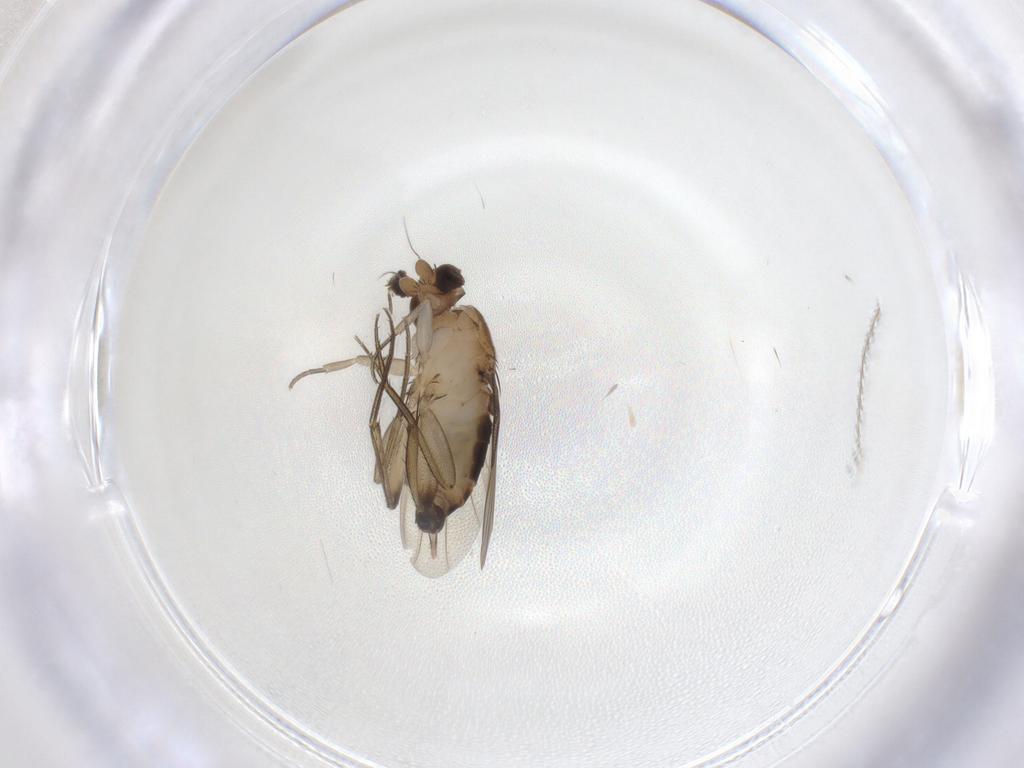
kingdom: Animalia
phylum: Arthropoda
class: Insecta
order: Diptera
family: Phoridae
